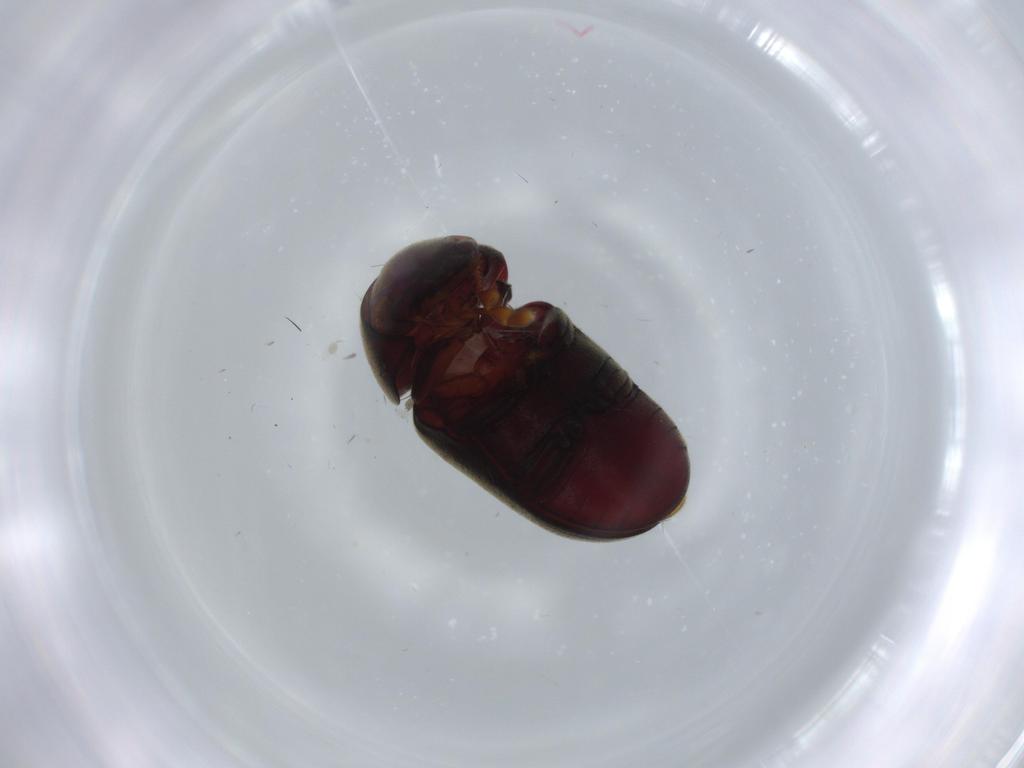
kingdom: Animalia
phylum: Arthropoda
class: Insecta
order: Coleoptera
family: Ptinidae
